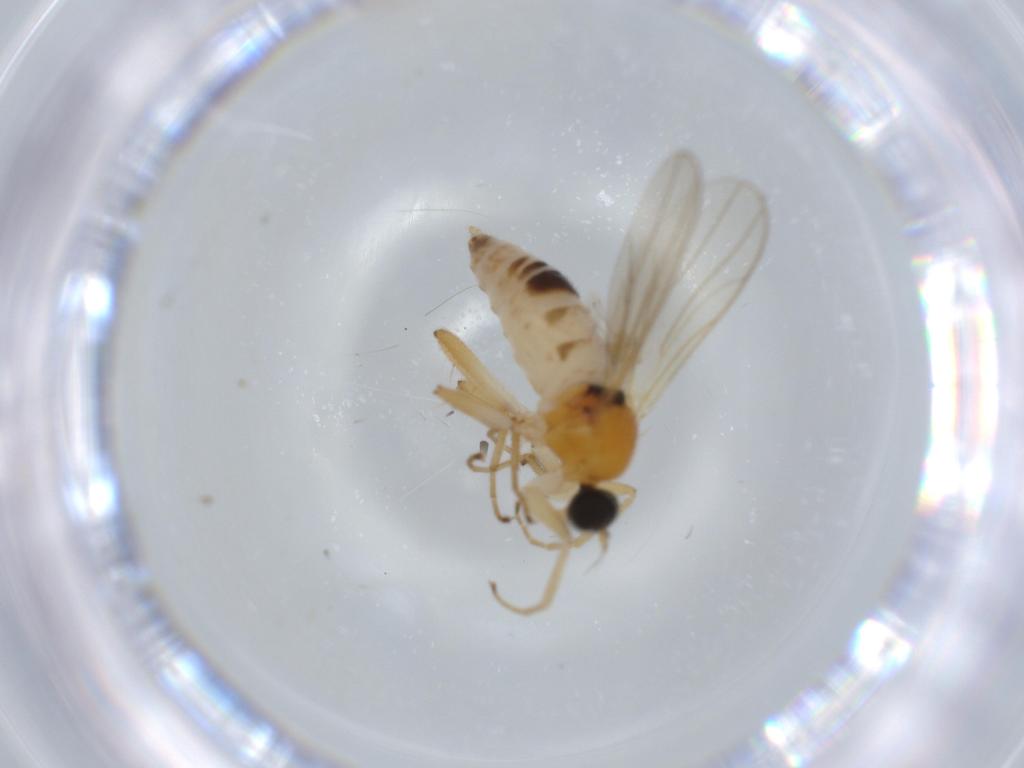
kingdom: Animalia
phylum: Arthropoda
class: Insecta
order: Diptera
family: Hybotidae
